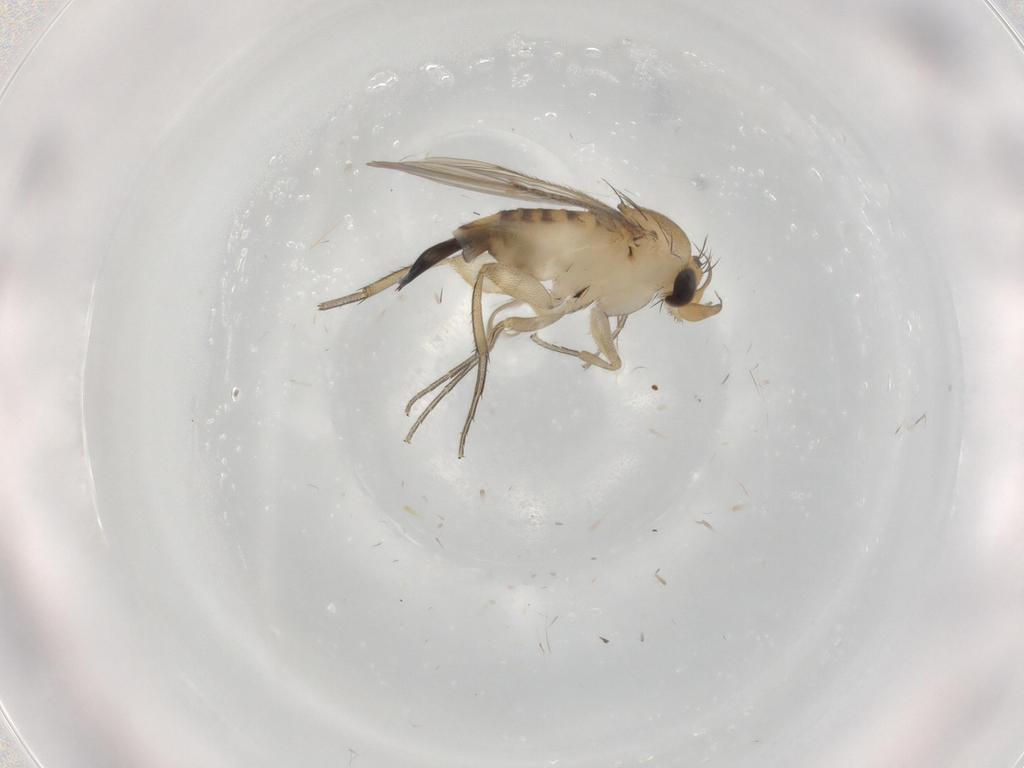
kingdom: Animalia
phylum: Arthropoda
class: Insecta
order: Diptera
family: Phoridae
